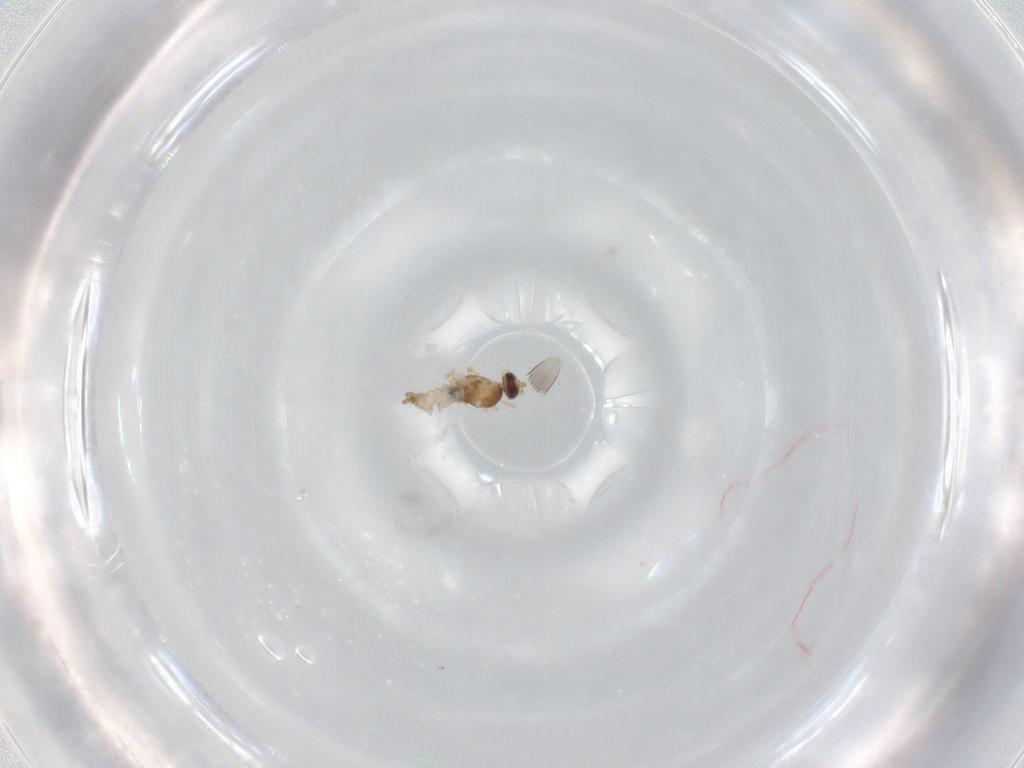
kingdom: Animalia
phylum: Arthropoda
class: Insecta
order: Diptera
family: Cecidomyiidae
